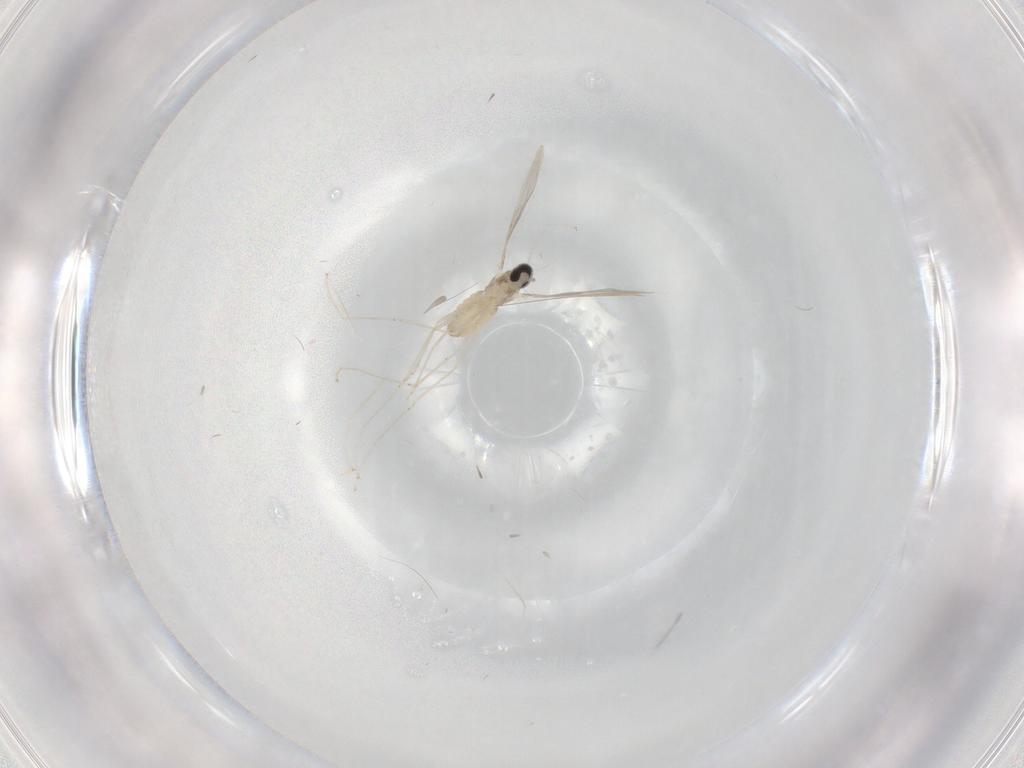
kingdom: Animalia
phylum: Arthropoda
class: Insecta
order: Diptera
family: Cecidomyiidae
